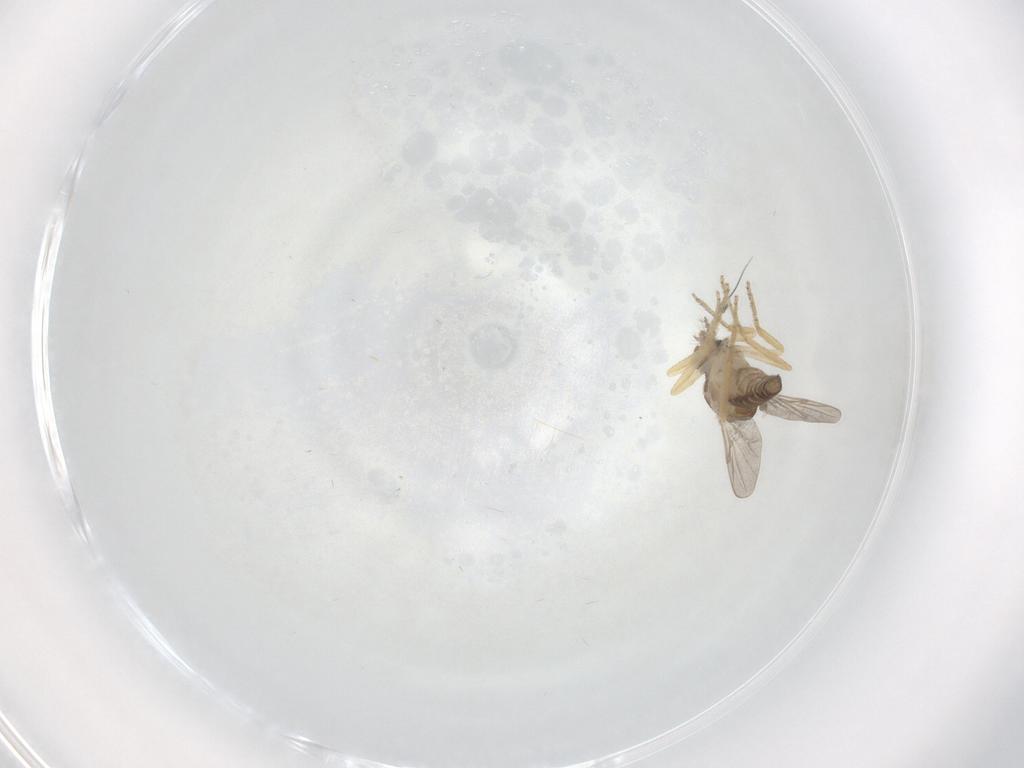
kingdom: Animalia
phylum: Arthropoda
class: Insecta
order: Diptera
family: Ceratopogonidae
